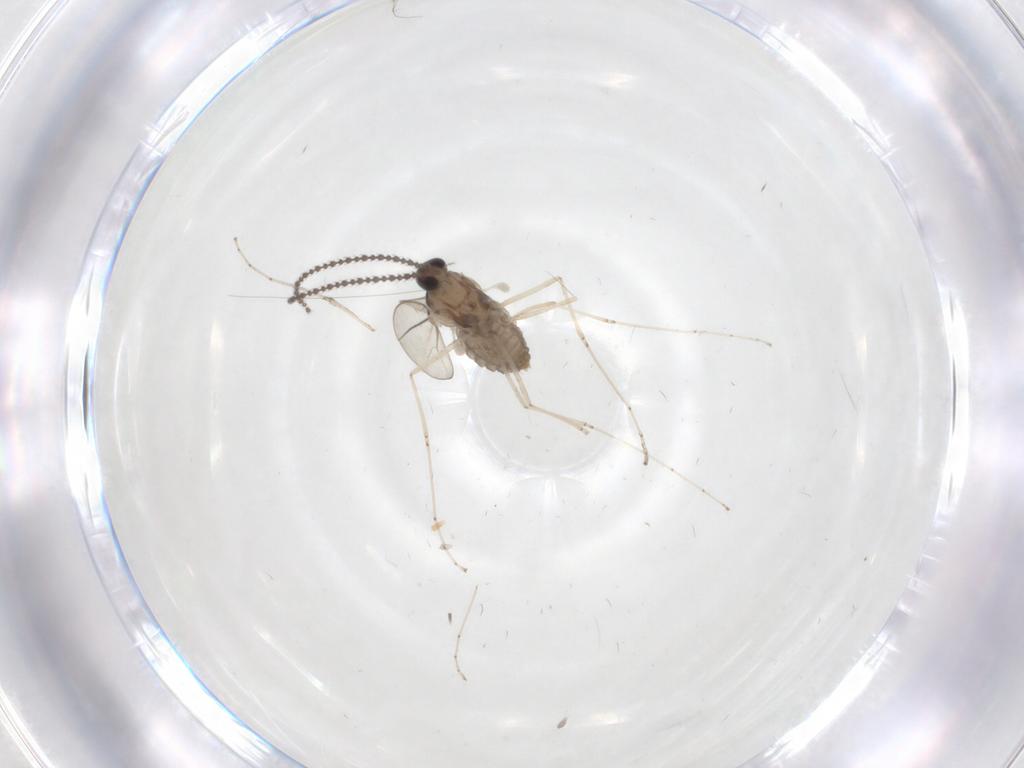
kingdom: Animalia
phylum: Arthropoda
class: Insecta
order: Diptera
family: Cecidomyiidae
